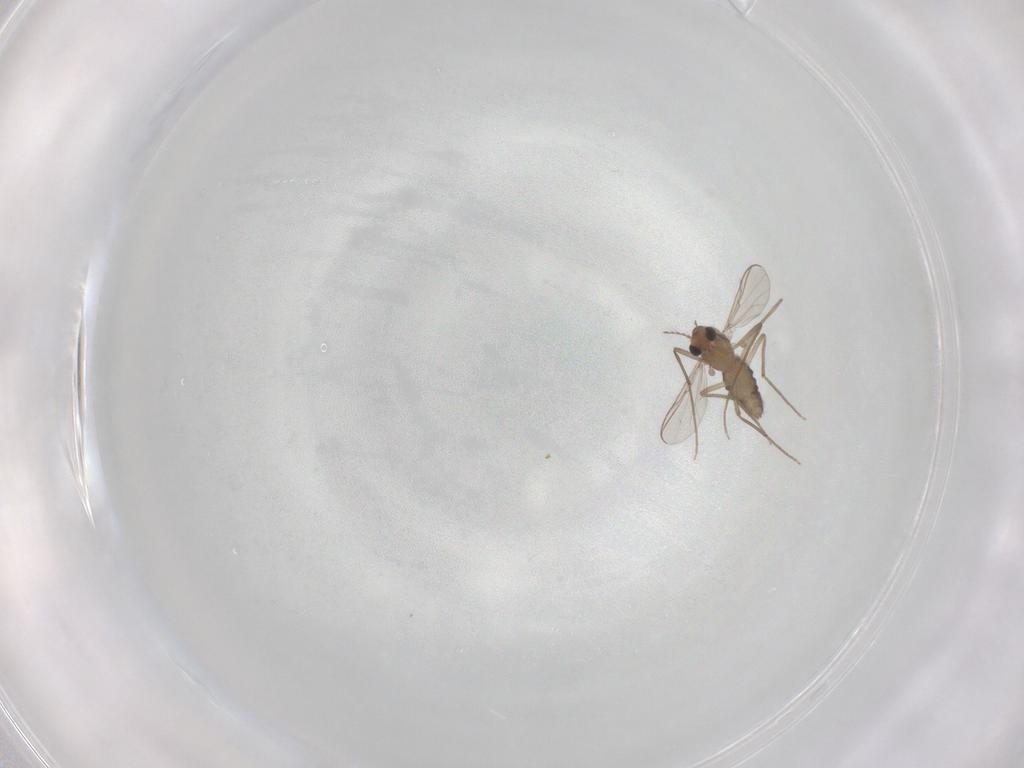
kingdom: Animalia
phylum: Arthropoda
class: Insecta
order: Diptera
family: Chironomidae
